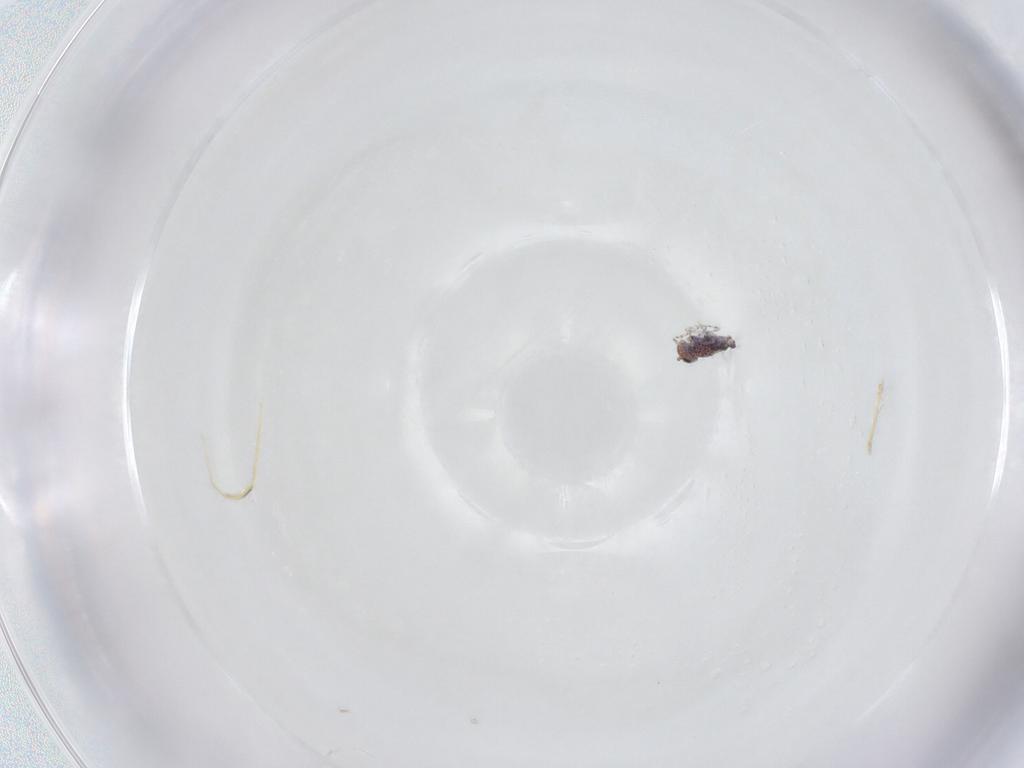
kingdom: Animalia
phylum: Arthropoda
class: Collembola
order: Symphypleona
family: Bourletiellidae
